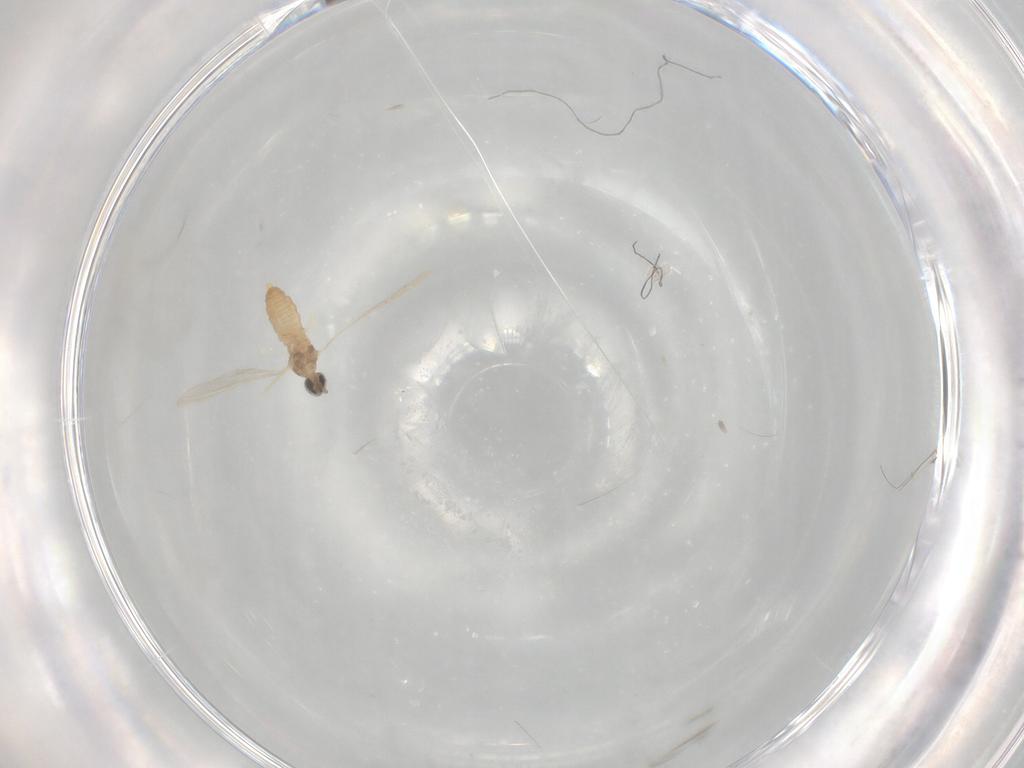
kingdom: Animalia
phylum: Arthropoda
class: Insecta
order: Diptera
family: Cecidomyiidae
